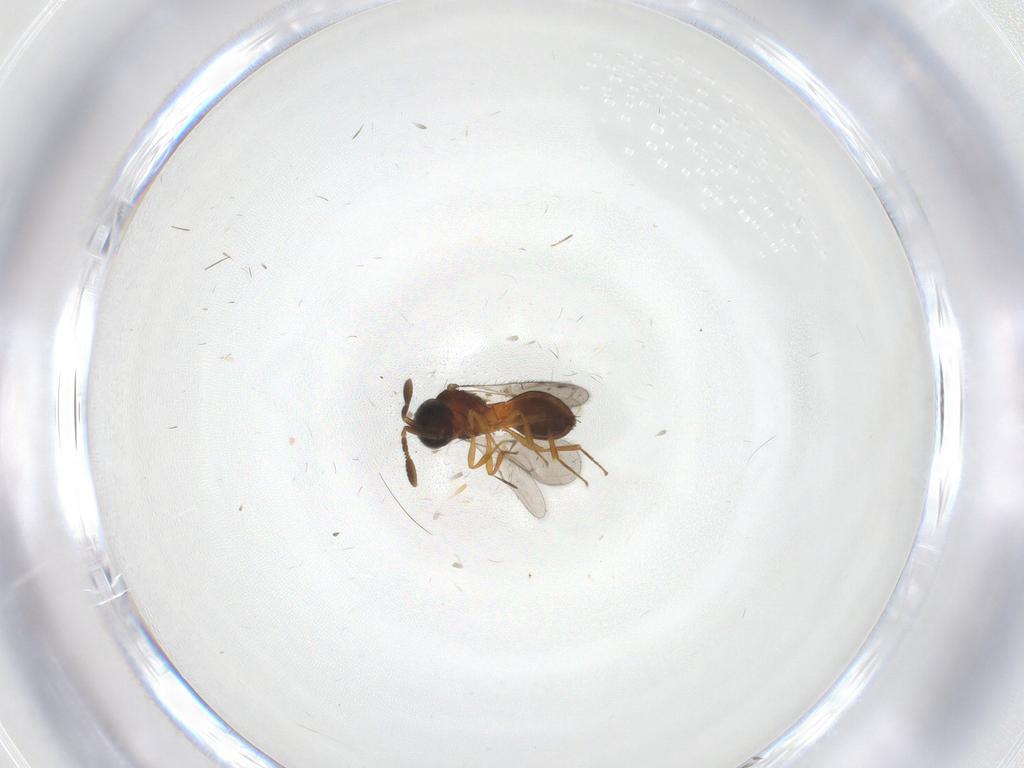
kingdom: Animalia
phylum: Arthropoda
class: Insecta
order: Hymenoptera
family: Scelionidae
